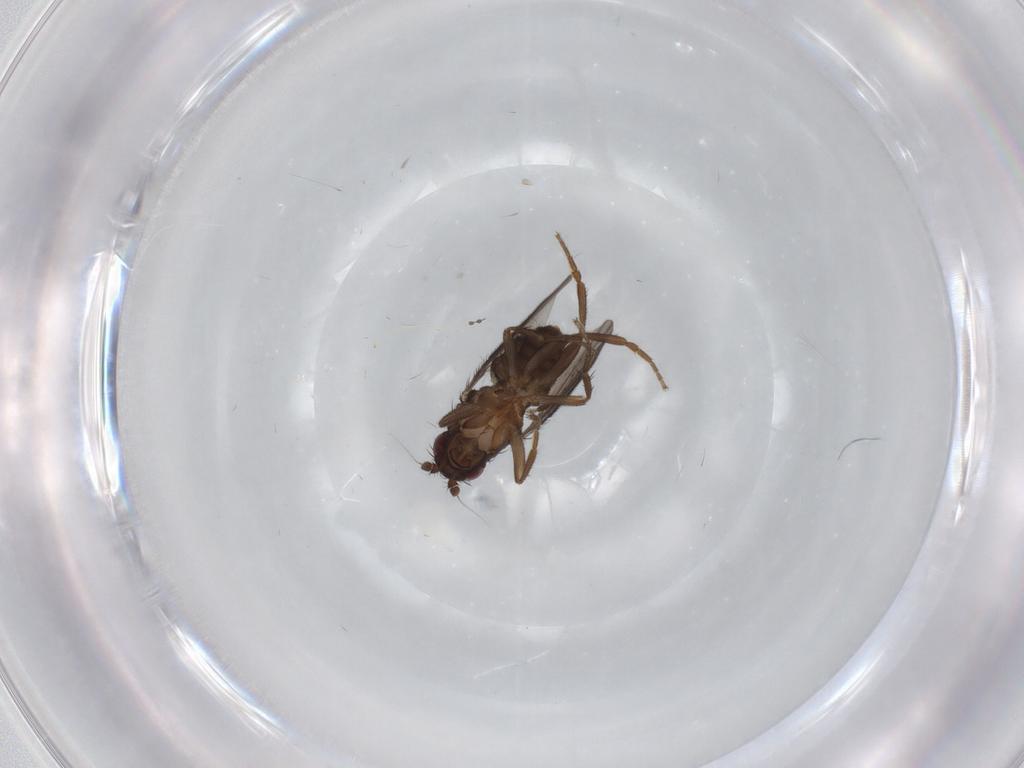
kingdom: Animalia
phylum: Arthropoda
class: Insecta
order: Diptera
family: Sphaeroceridae
